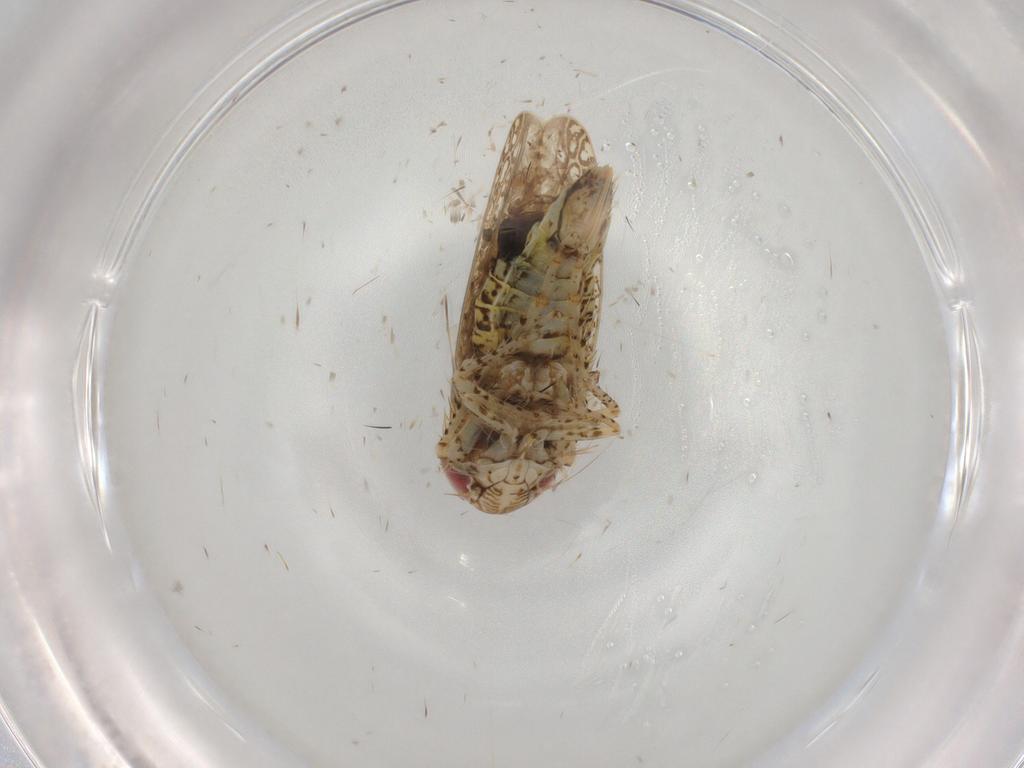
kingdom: Animalia
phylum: Arthropoda
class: Insecta
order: Hemiptera
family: Cicadellidae
